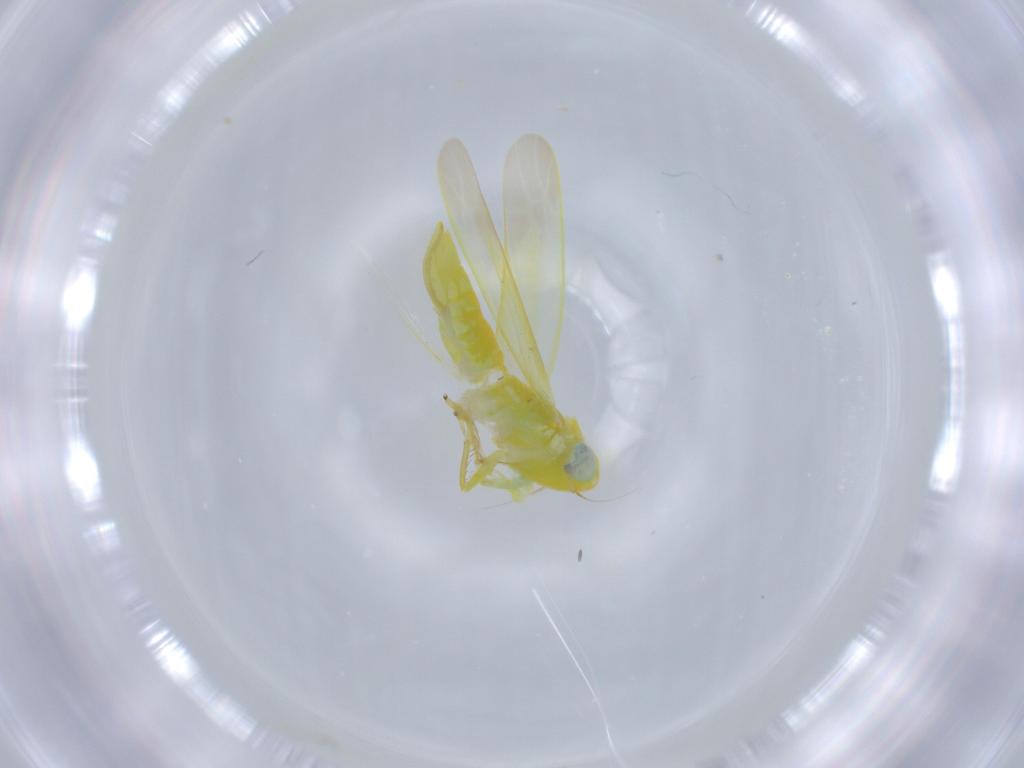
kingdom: Animalia
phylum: Arthropoda
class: Insecta
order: Hemiptera
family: Cicadellidae
